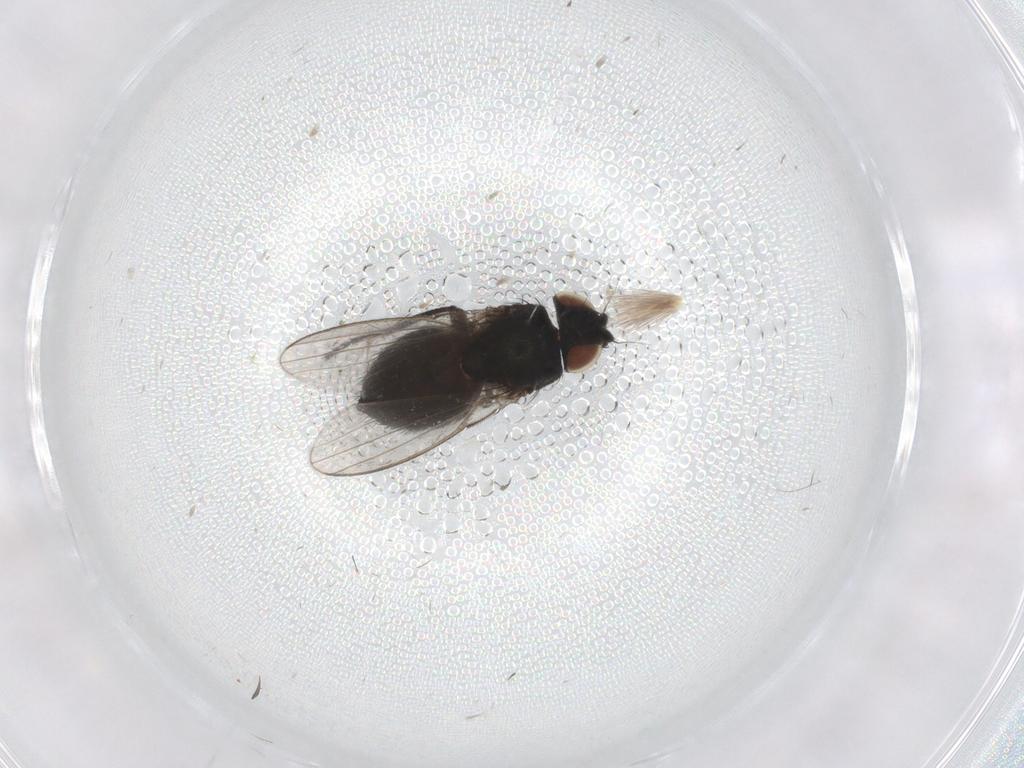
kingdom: Animalia
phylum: Arthropoda
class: Insecta
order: Diptera
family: Milichiidae
